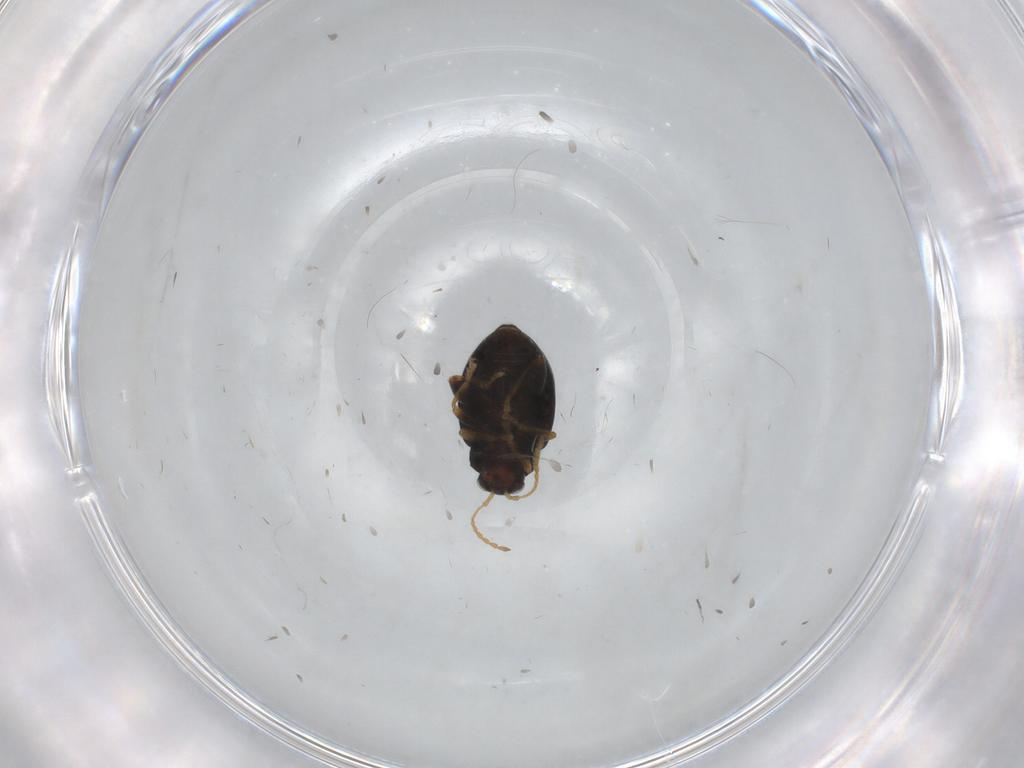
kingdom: Animalia
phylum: Arthropoda
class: Insecta
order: Coleoptera
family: Chrysomelidae
